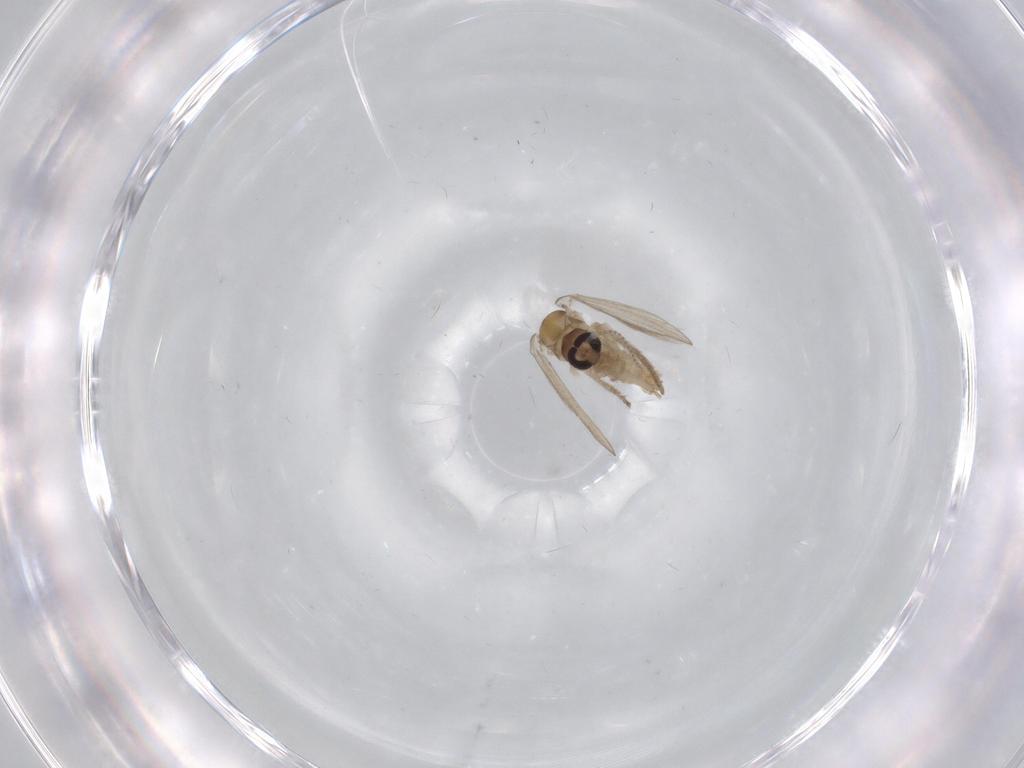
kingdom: Animalia
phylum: Arthropoda
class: Insecta
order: Diptera
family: Psychodidae
